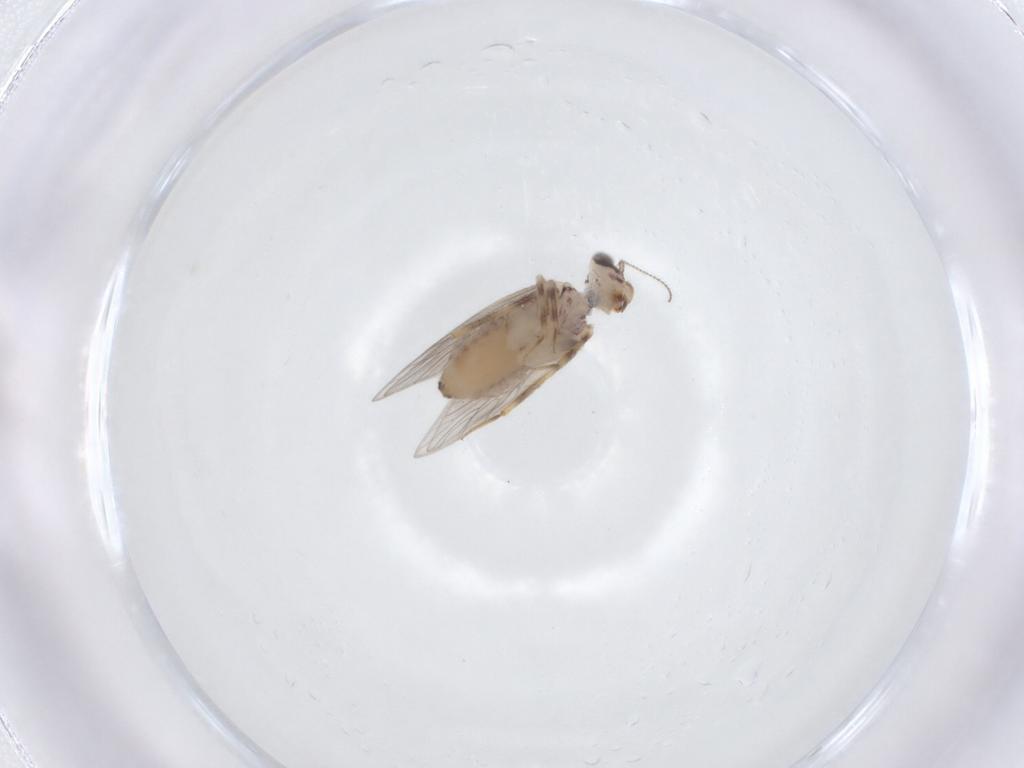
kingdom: Animalia
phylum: Arthropoda
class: Insecta
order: Psocodea
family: Lepidopsocidae
